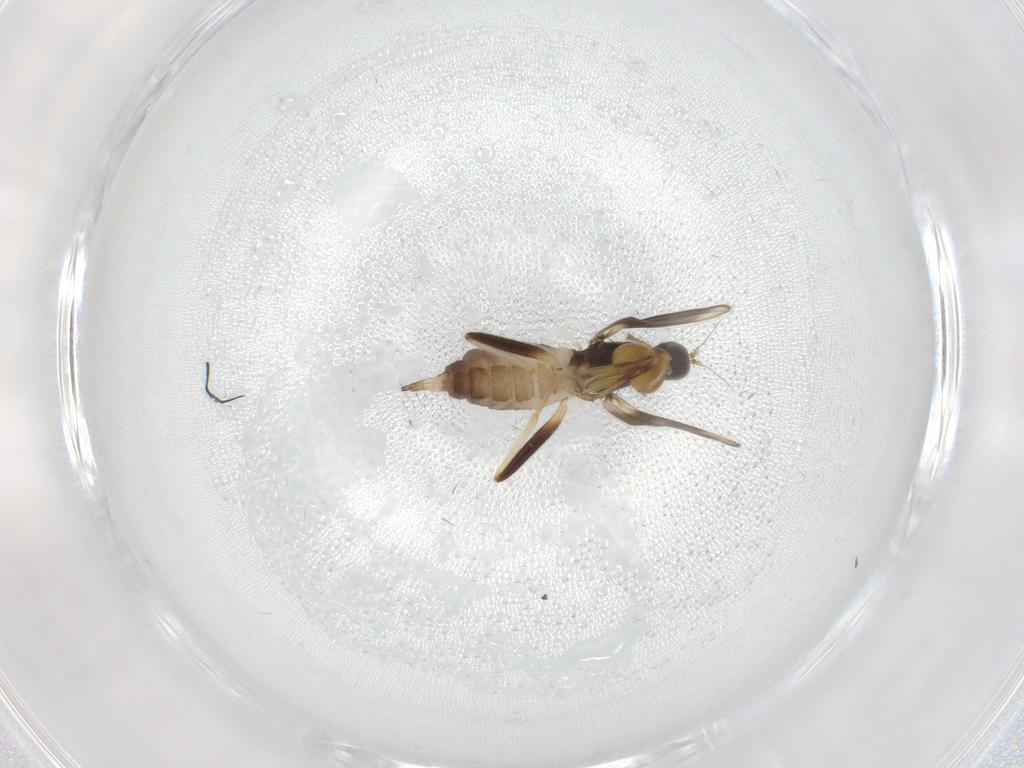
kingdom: Animalia
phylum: Arthropoda
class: Insecta
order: Diptera
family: Hybotidae
